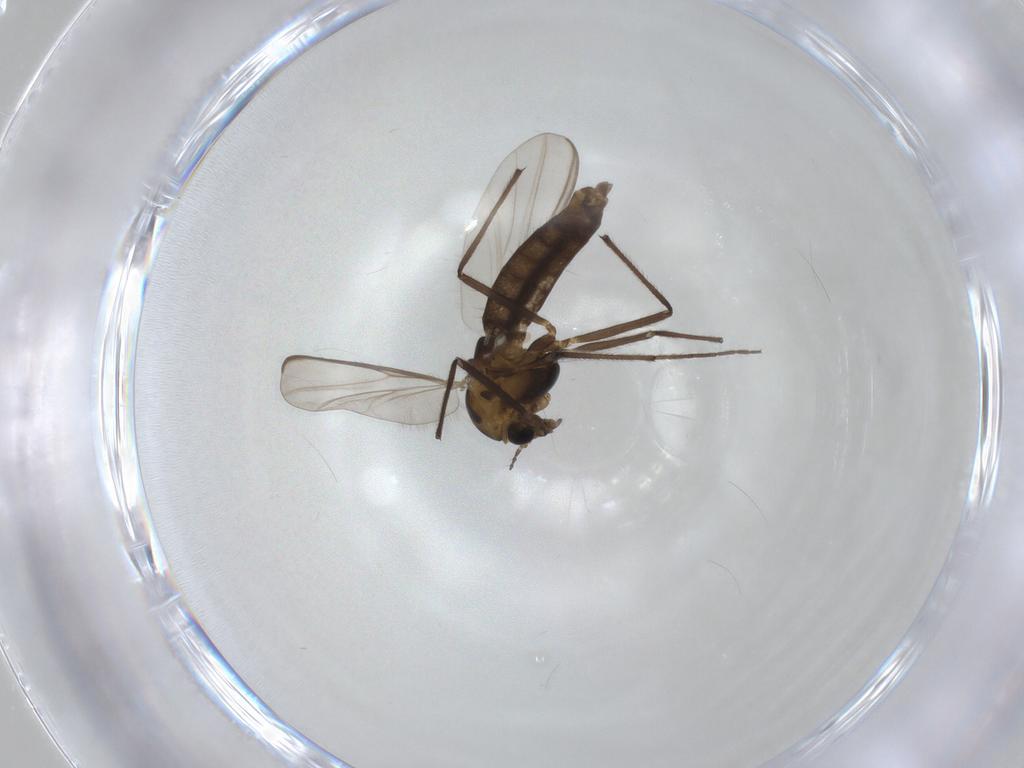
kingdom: Animalia
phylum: Arthropoda
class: Insecta
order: Diptera
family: Chironomidae
